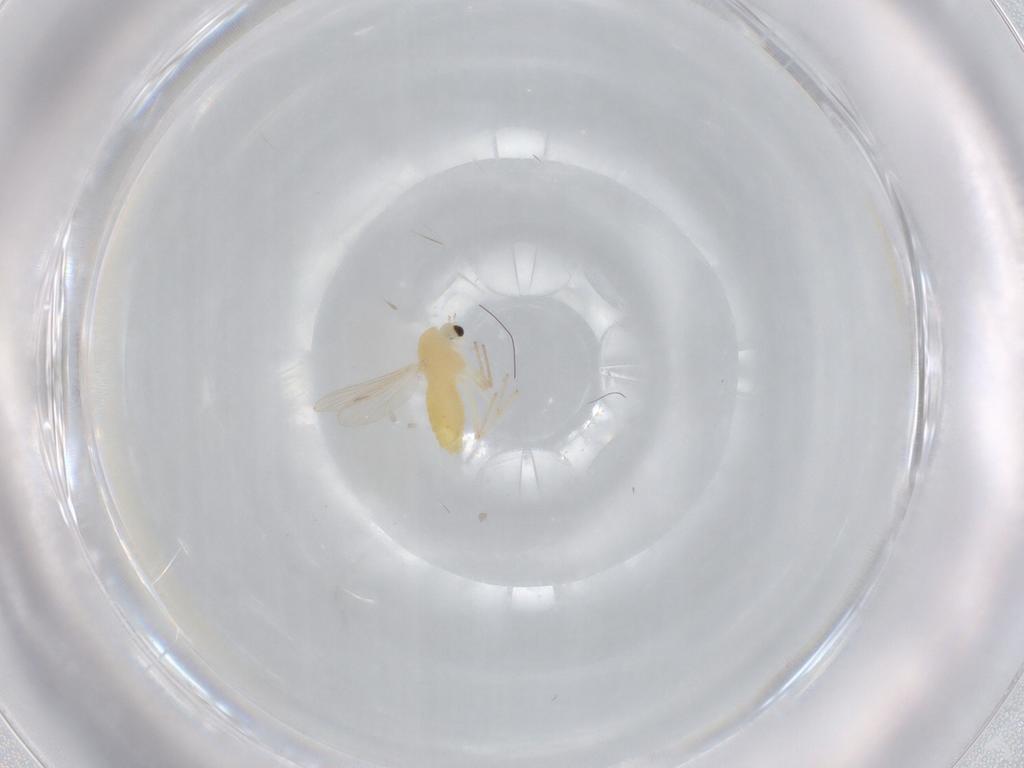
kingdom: Animalia
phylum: Arthropoda
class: Insecta
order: Diptera
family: Chironomidae
